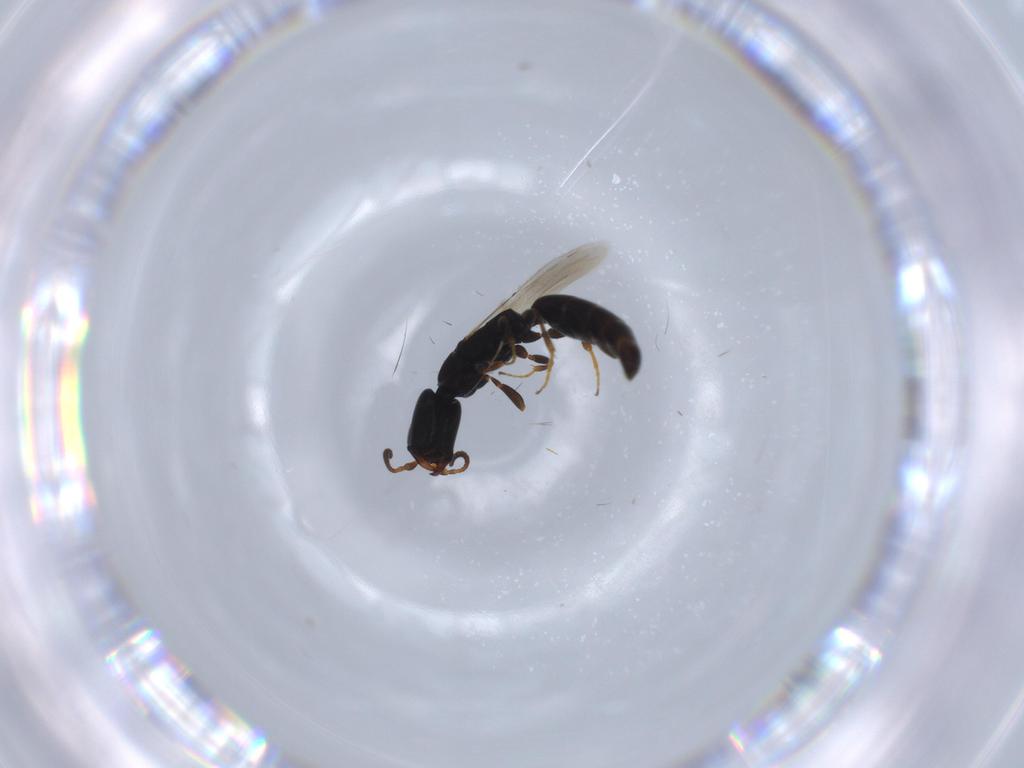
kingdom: Animalia
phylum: Arthropoda
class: Insecta
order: Hymenoptera
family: Bethylidae
